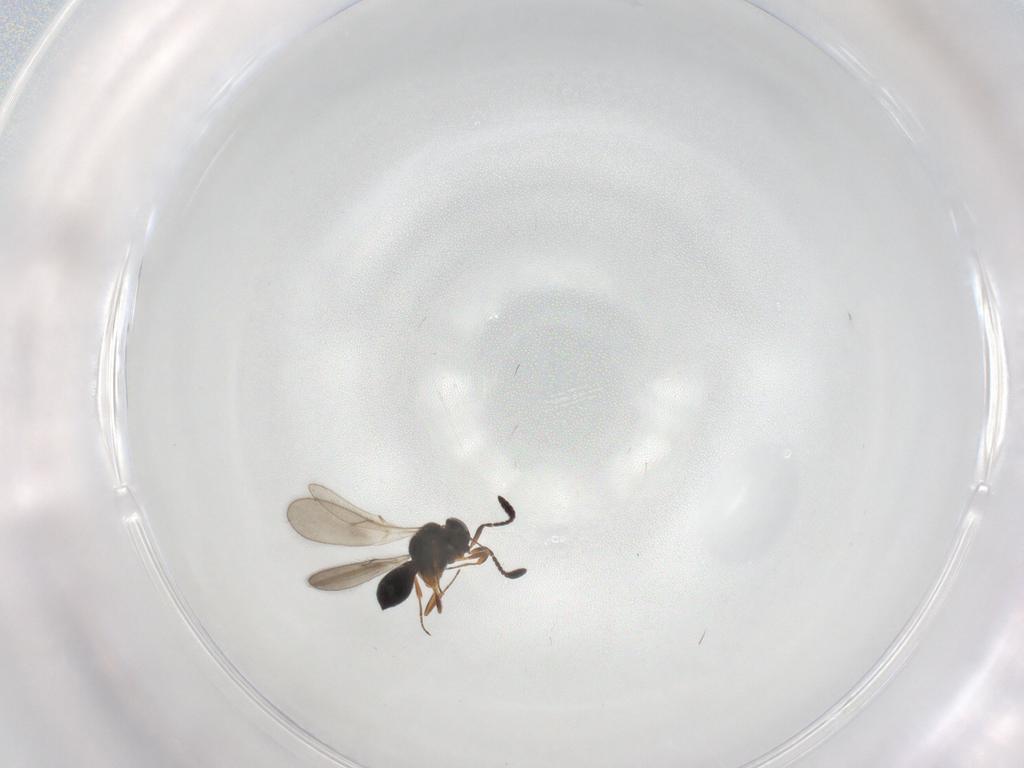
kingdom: Animalia
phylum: Arthropoda
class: Insecta
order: Hymenoptera
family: Scelionidae
